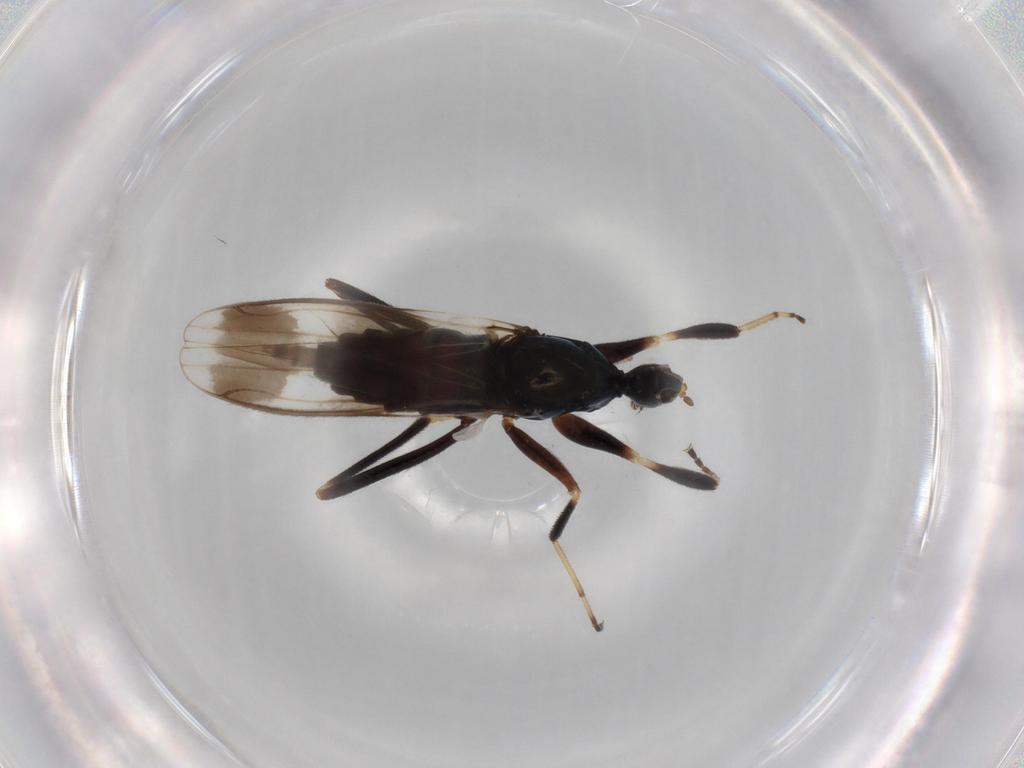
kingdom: Animalia
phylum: Arthropoda
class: Insecta
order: Diptera
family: Hybotidae
